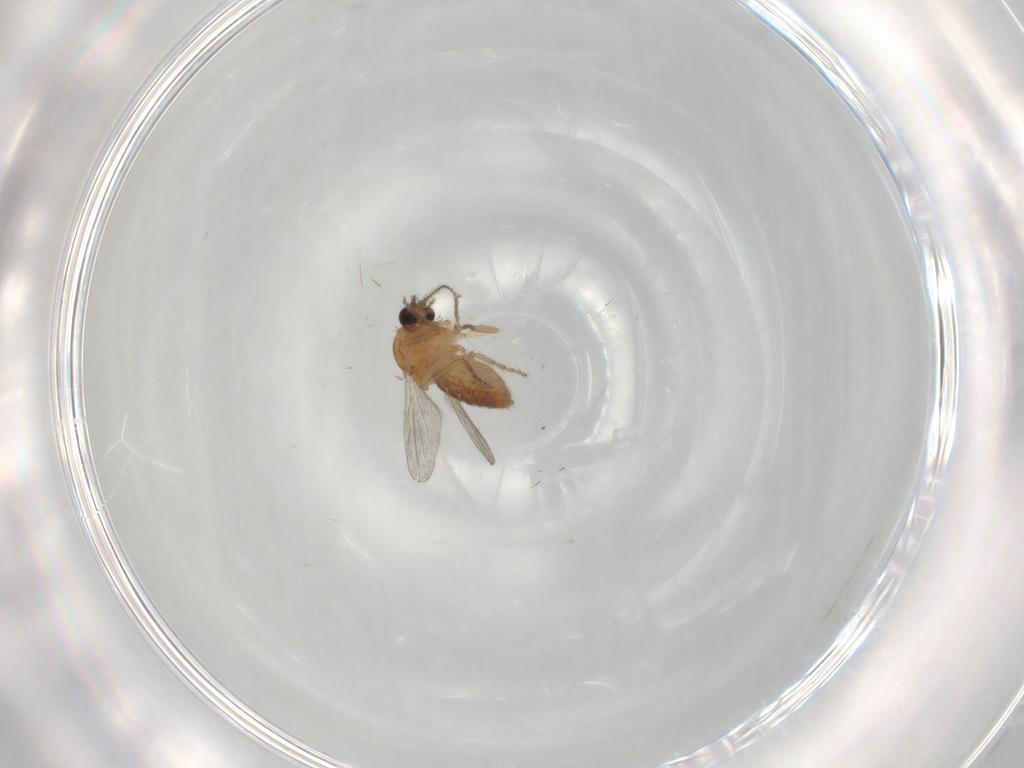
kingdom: Animalia
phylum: Arthropoda
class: Insecta
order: Diptera
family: Ceratopogonidae
